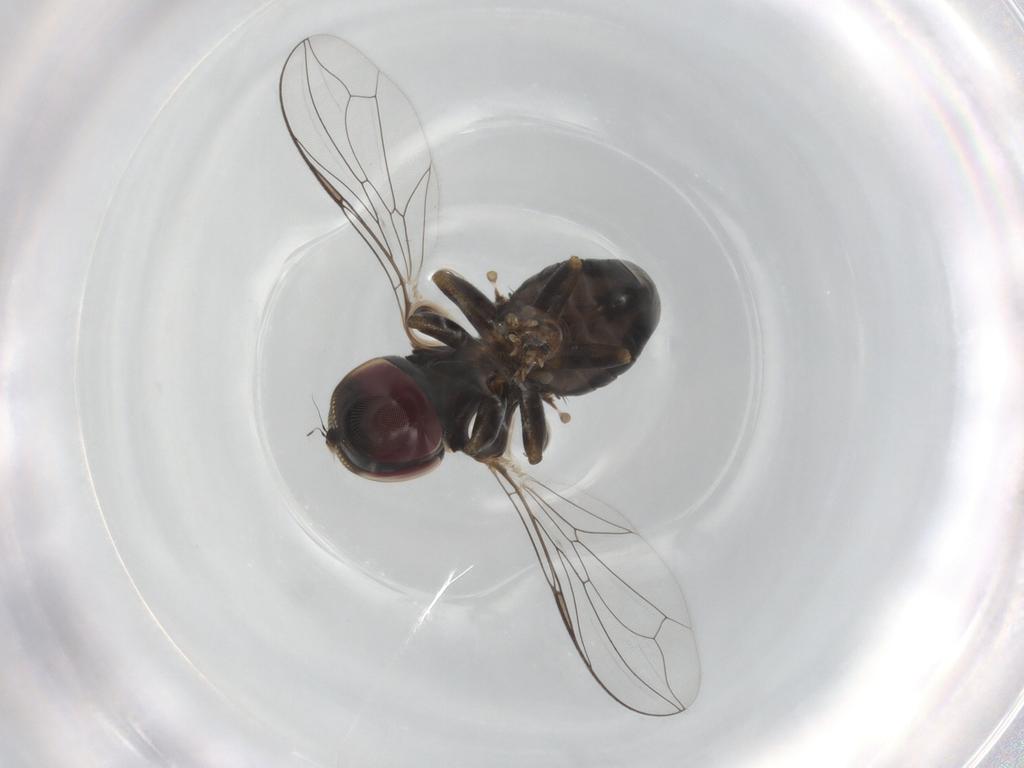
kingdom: Animalia
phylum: Arthropoda
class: Insecta
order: Diptera
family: Pipunculidae
